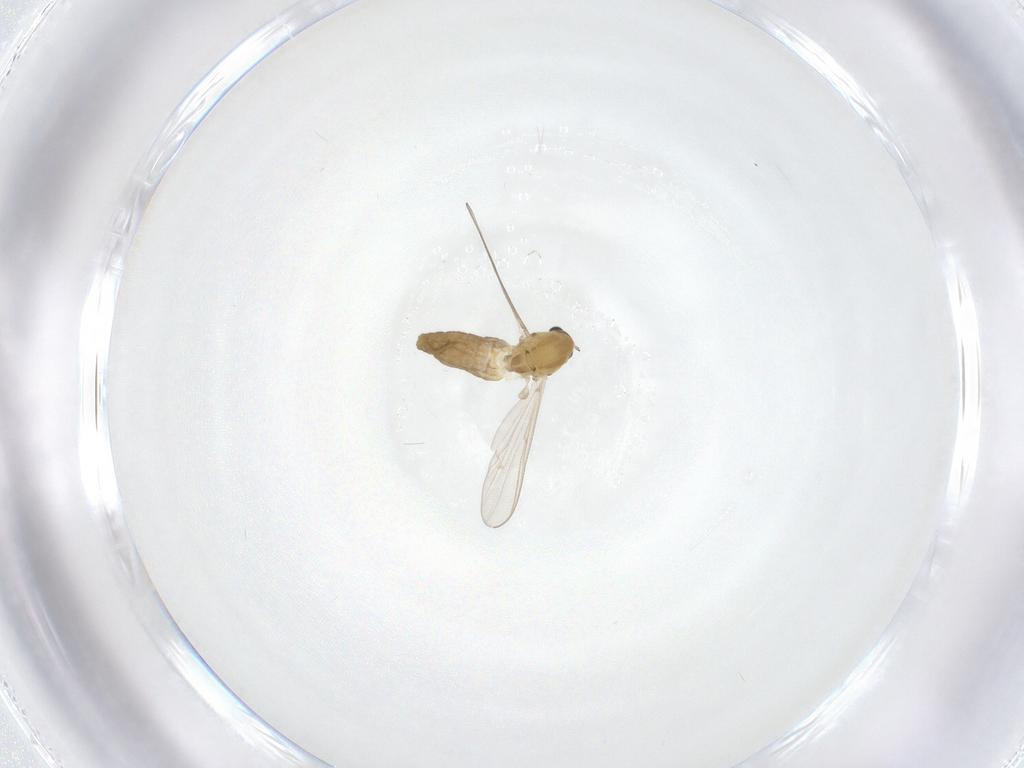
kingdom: Animalia
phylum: Arthropoda
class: Insecta
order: Diptera
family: Chironomidae
